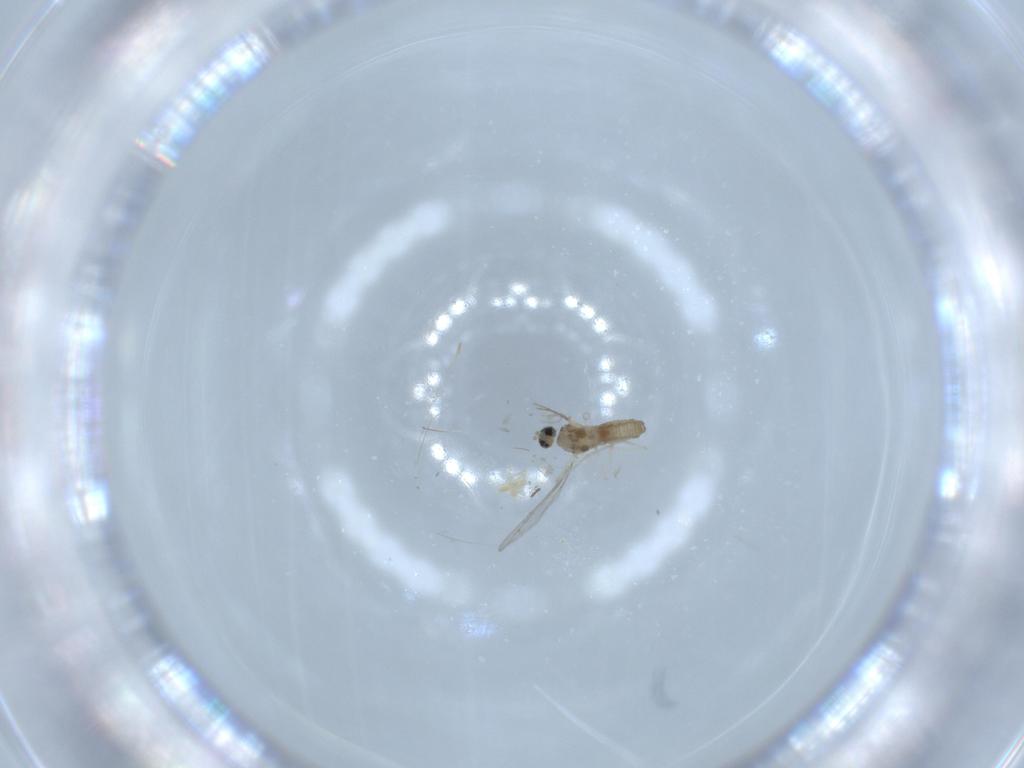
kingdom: Animalia
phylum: Arthropoda
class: Insecta
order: Diptera
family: Cecidomyiidae
